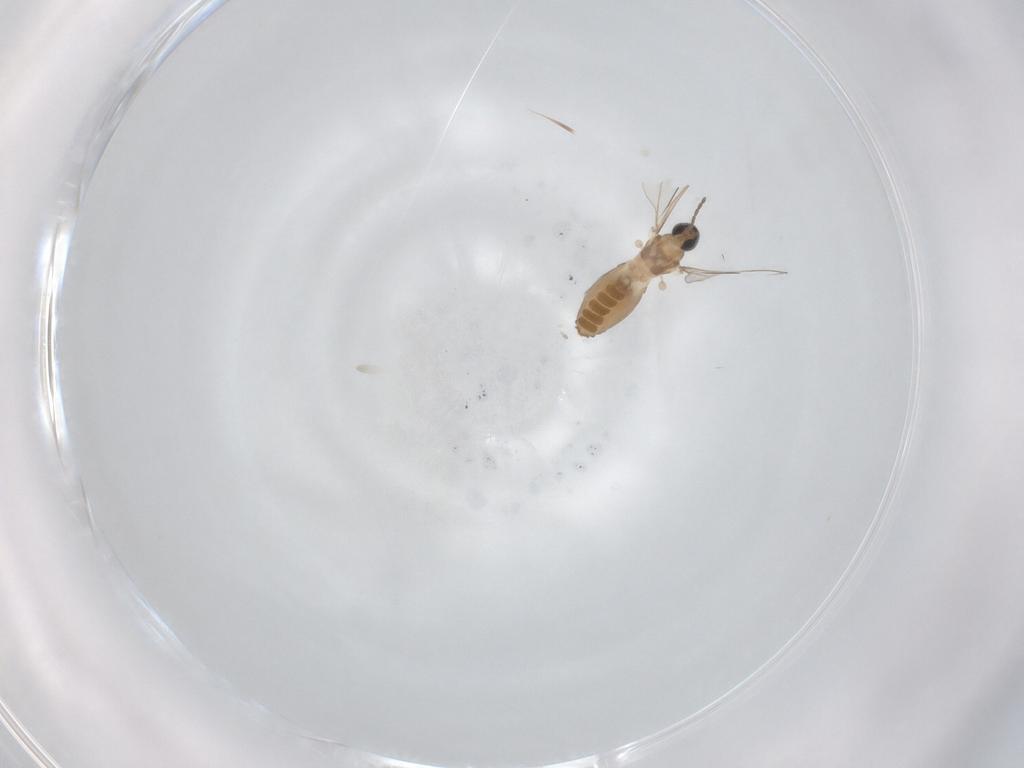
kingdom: Animalia
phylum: Arthropoda
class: Insecta
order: Diptera
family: Cecidomyiidae
